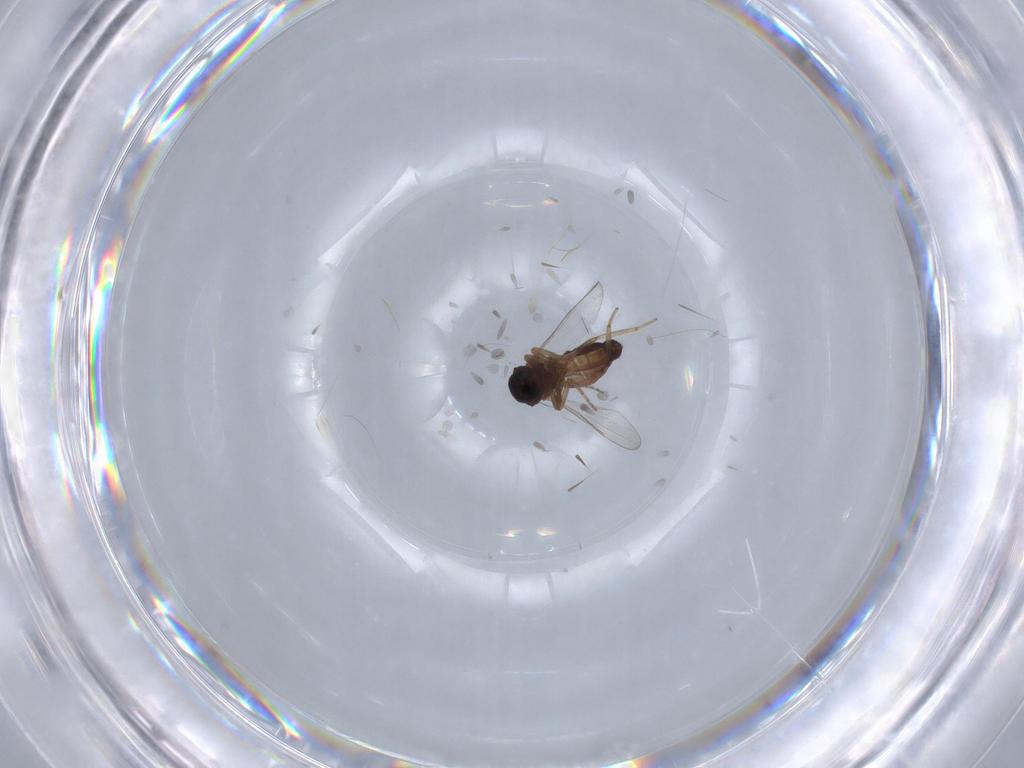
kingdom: Animalia
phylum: Arthropoda
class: Insecta
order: Diptera
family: Ceratopogonidae
